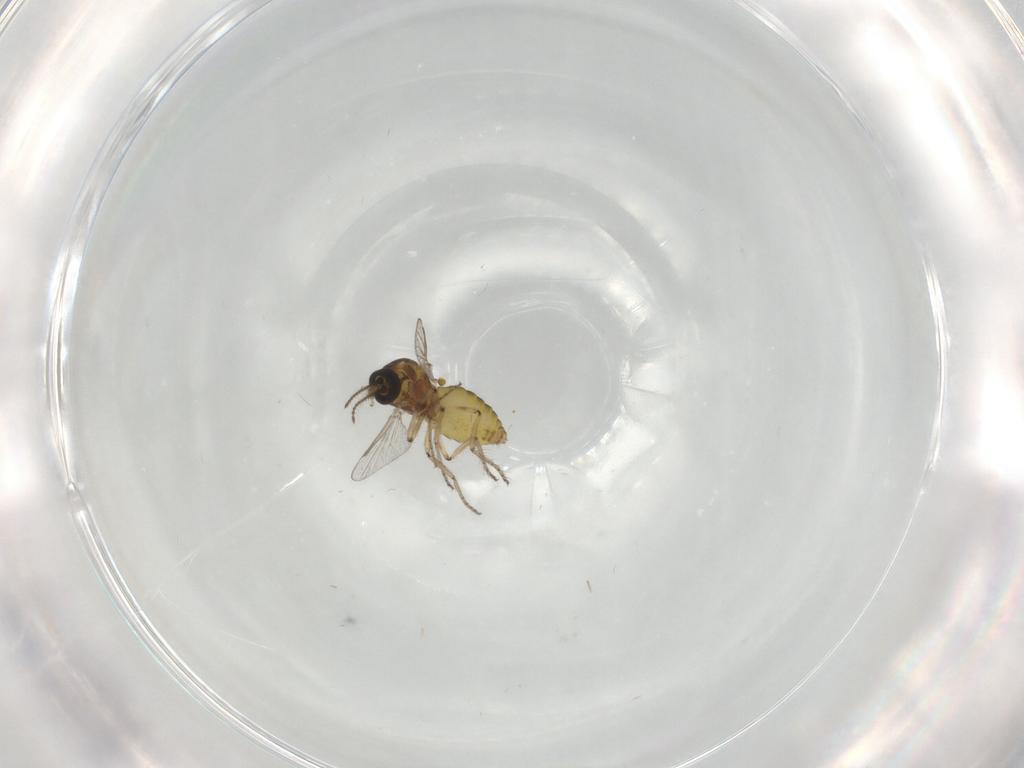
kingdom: Animalia
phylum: Arthropoda
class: Insecta
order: Diptera
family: Ceratopogonidae
